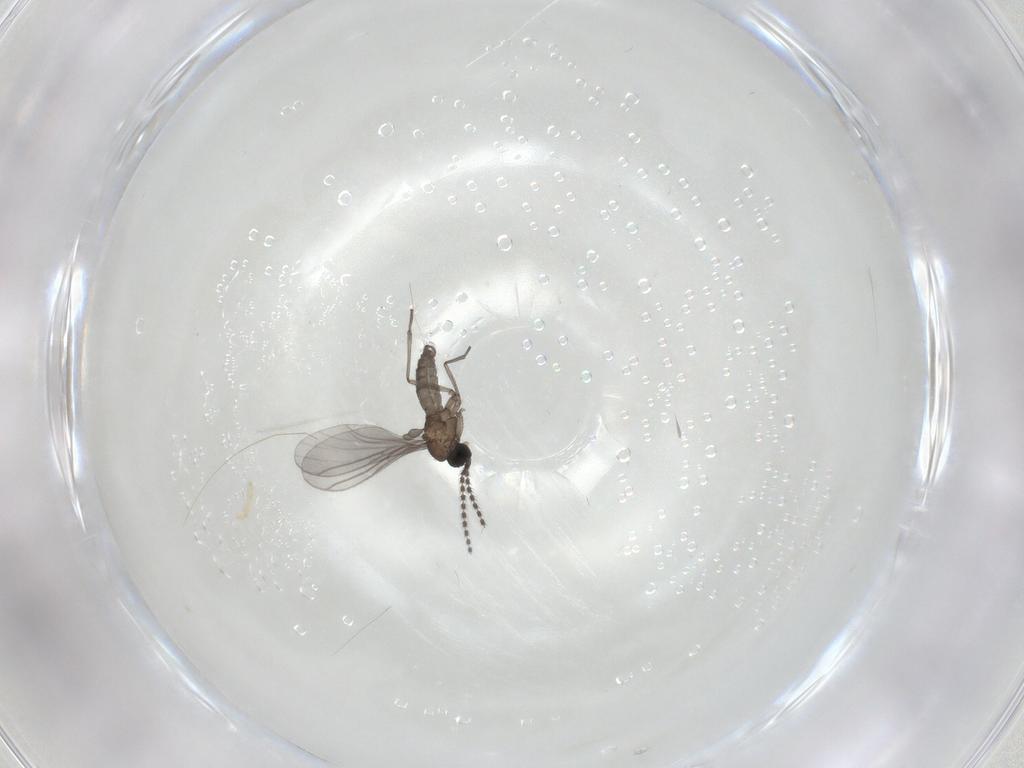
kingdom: Animalia
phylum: Arthropoda
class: Insecta
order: Diptera
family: Sciaridae
